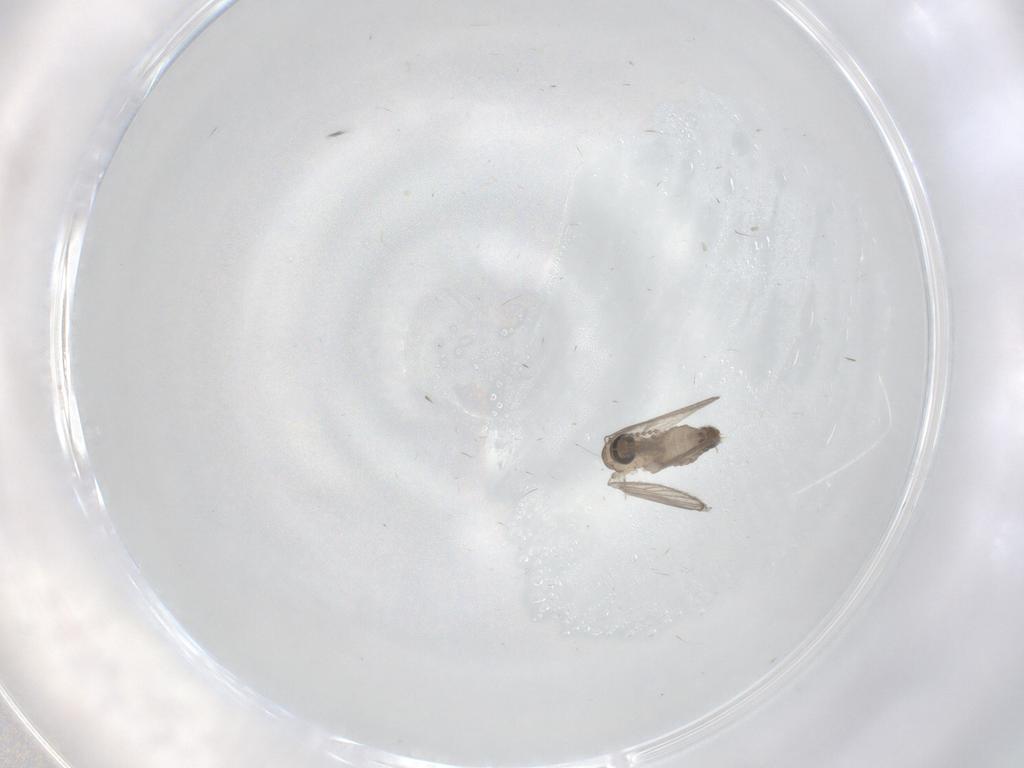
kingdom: Animalia
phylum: Arthropoda
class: Insecta
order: Diptera
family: Psychodidae
